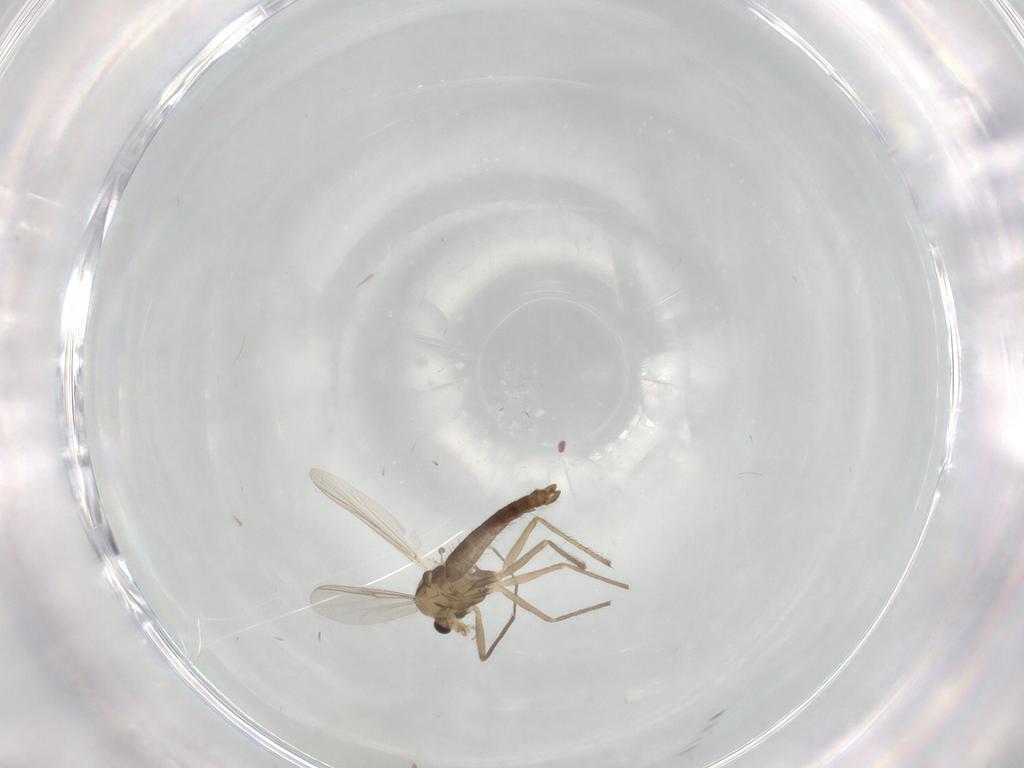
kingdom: Animalia
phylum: Arthropoda
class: Insecta
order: Diptera
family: Chironomidae
